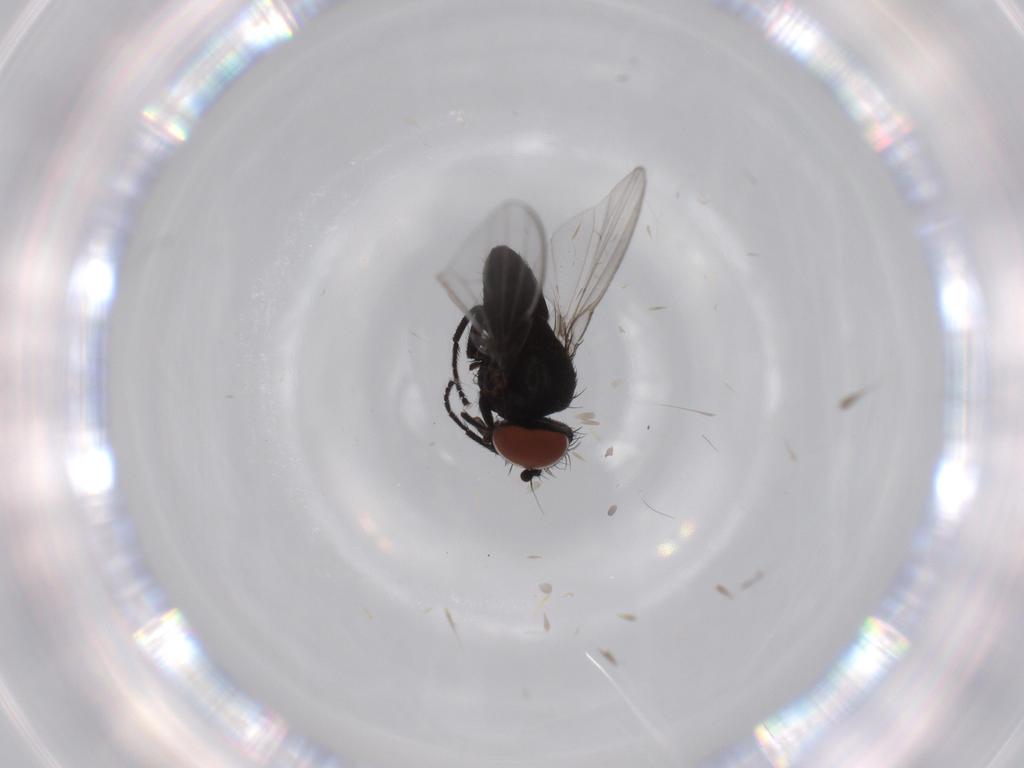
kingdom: Animalia
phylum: Arthropoda
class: Insecta
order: Diptera
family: Milichiidae
